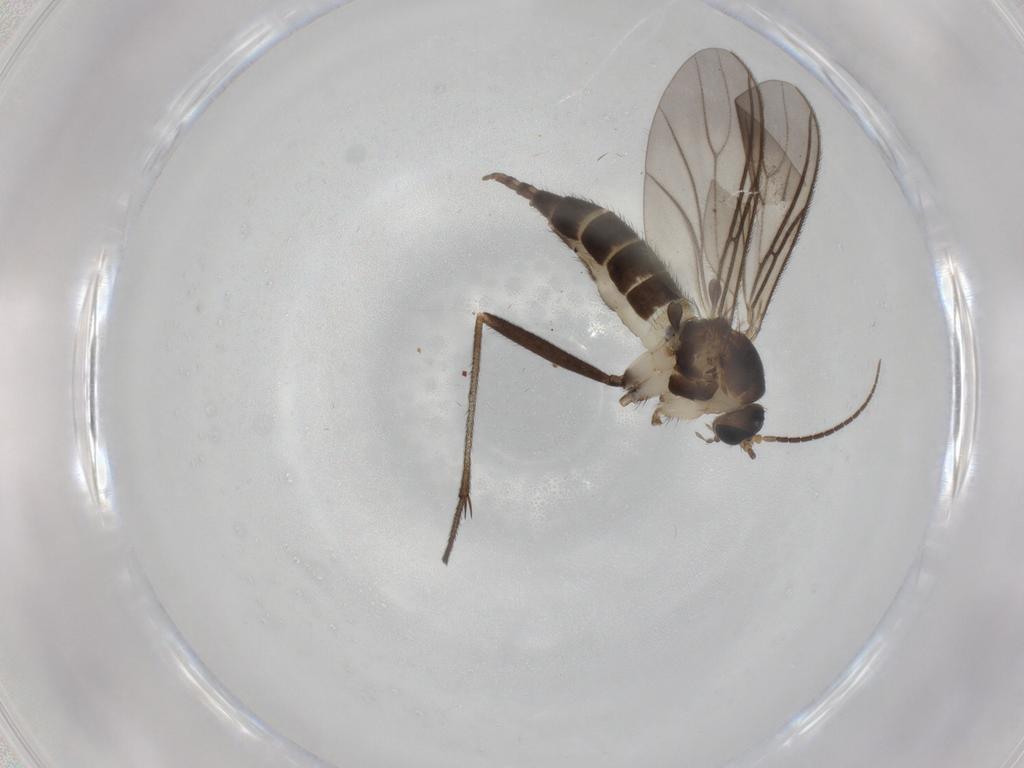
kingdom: Animalia
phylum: Arthropoda
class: Insecta
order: Diptera
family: Sciaridae
